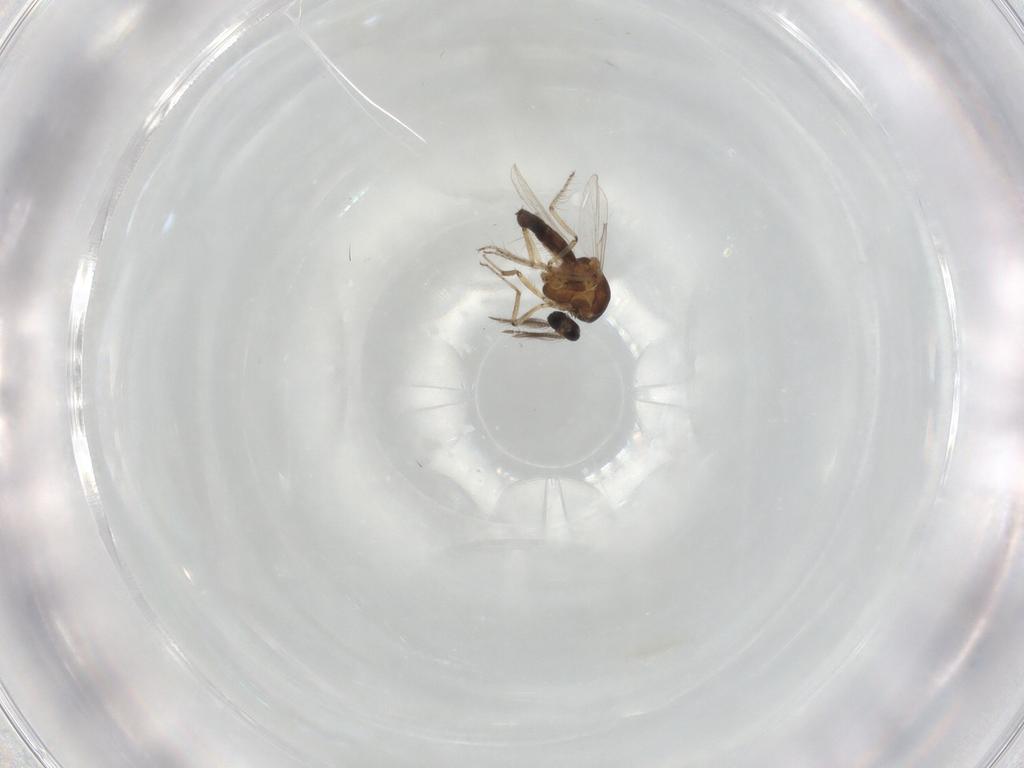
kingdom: Animalia
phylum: Arthropoda
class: Insecta
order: Diptera
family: Ceratopogonidae
